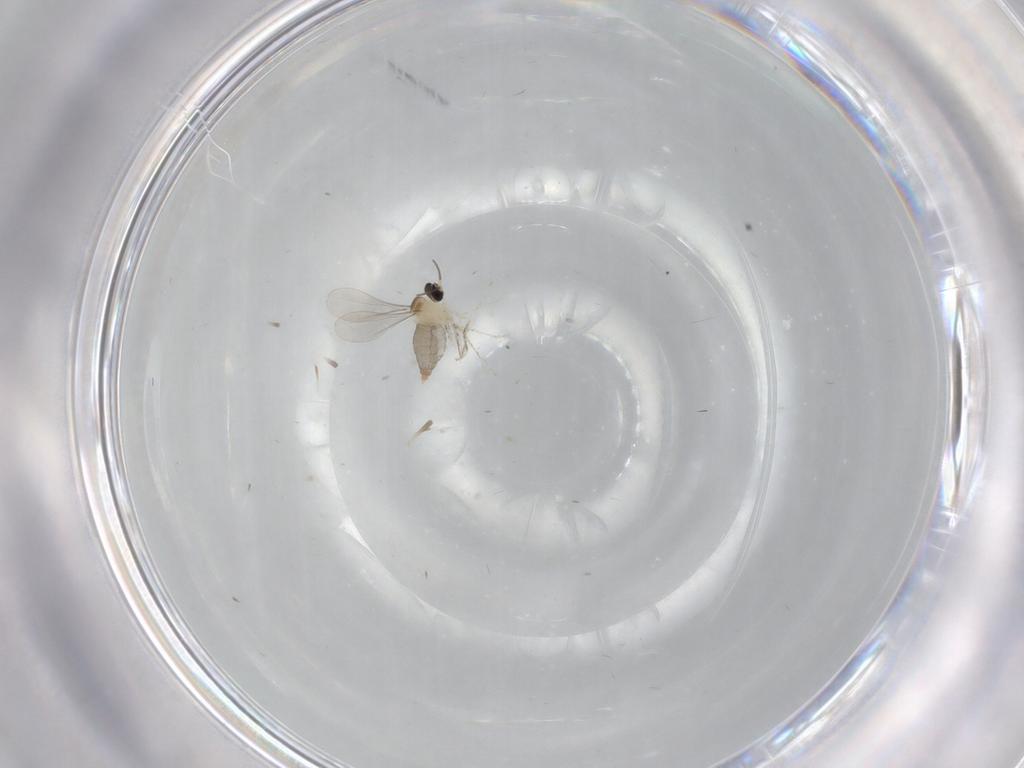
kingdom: Animalia
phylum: Arthropoda
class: Insecta
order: Diptera
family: Cecidomyiidae
